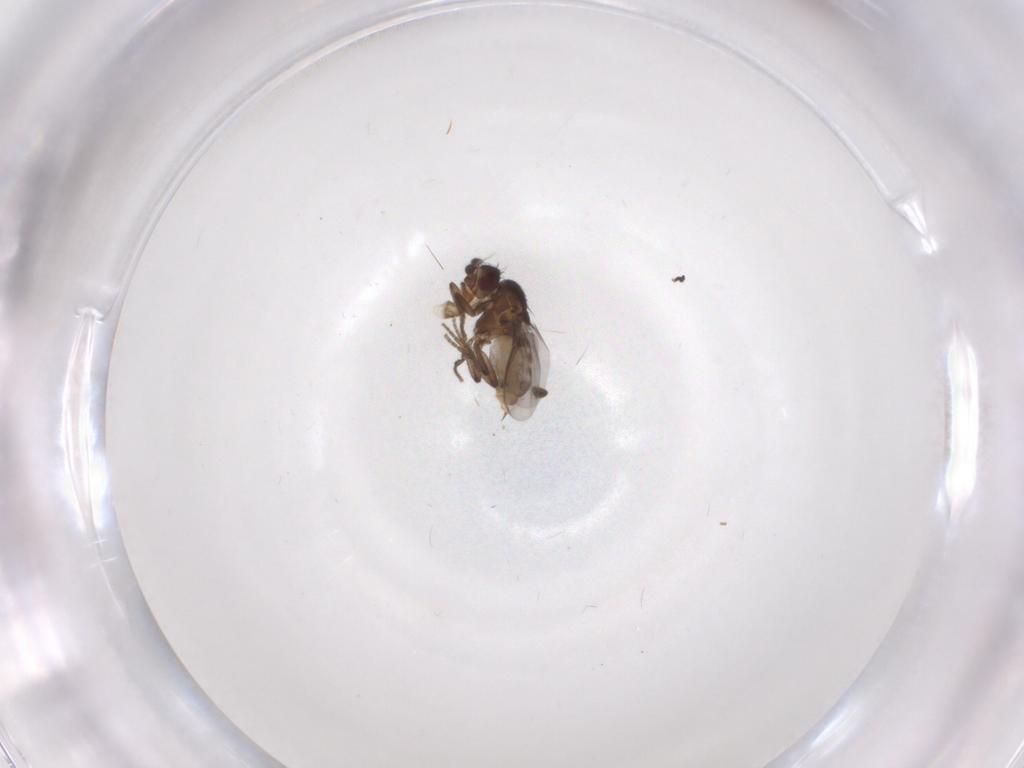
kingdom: Animalia
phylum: Arthropoda
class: Insecta
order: Diptera
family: Sphaeroceridae
